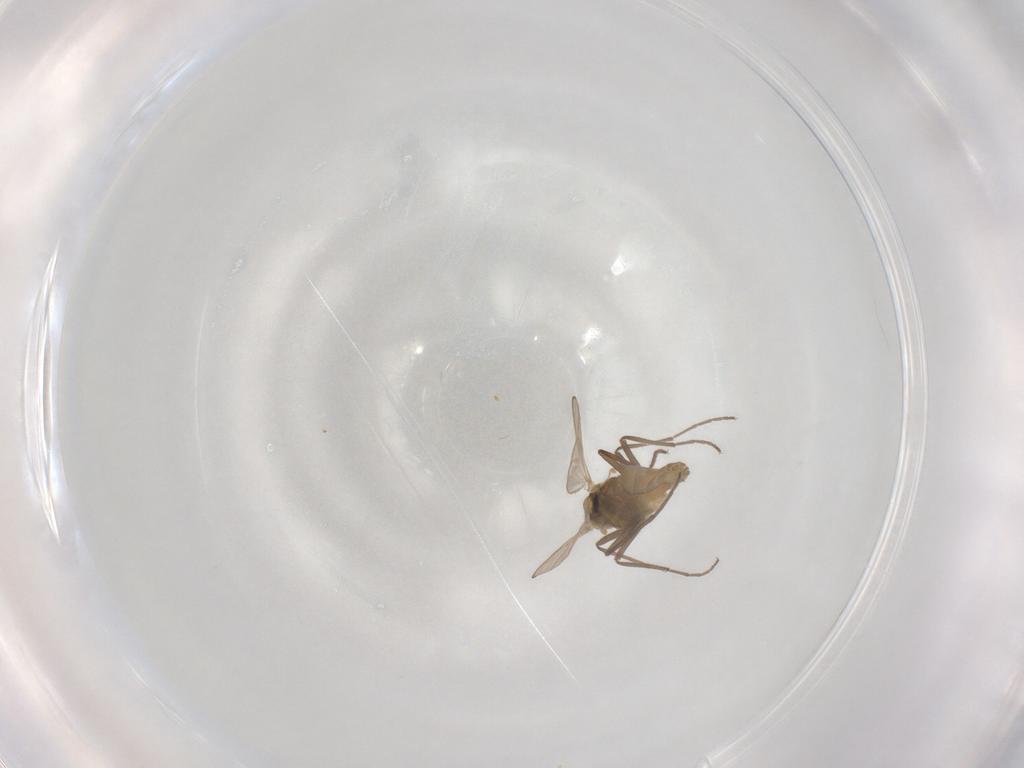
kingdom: Animalia
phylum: Arthropoda
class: Insecta
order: Diptera
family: Chironomidae
